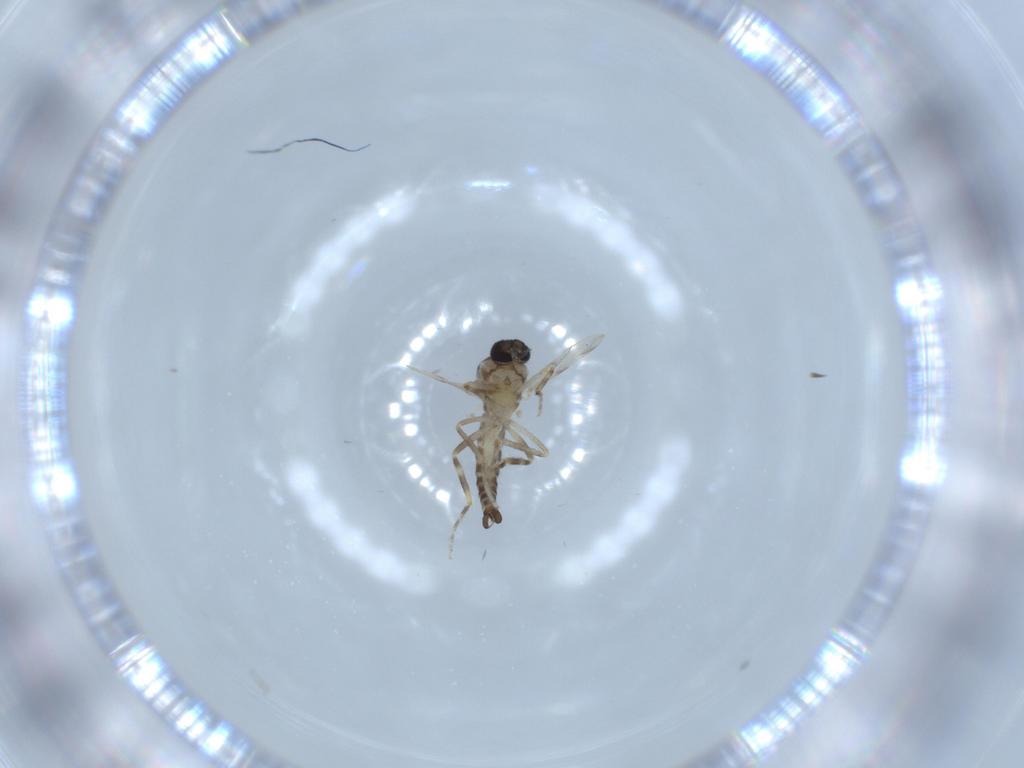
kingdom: Animalia
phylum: Arthropoda
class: Insecta
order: Diptera
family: Ceratopogonidae
